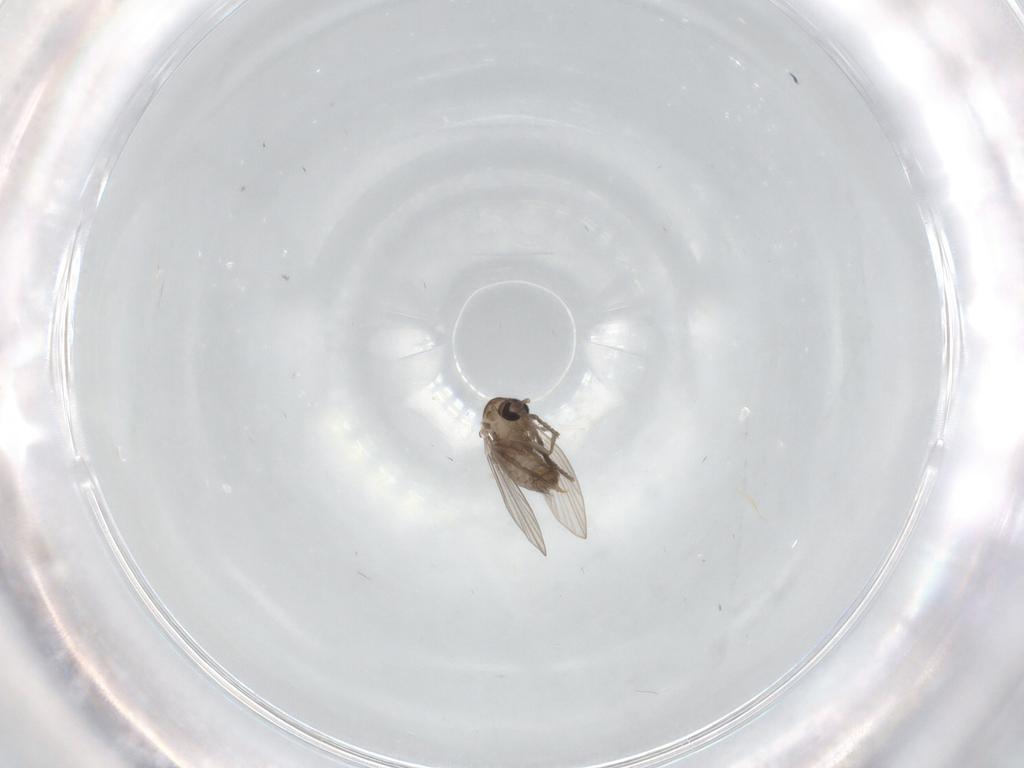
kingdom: Animalia
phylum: Arthropoda
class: Insecta
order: Diptera
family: Psychodidae
